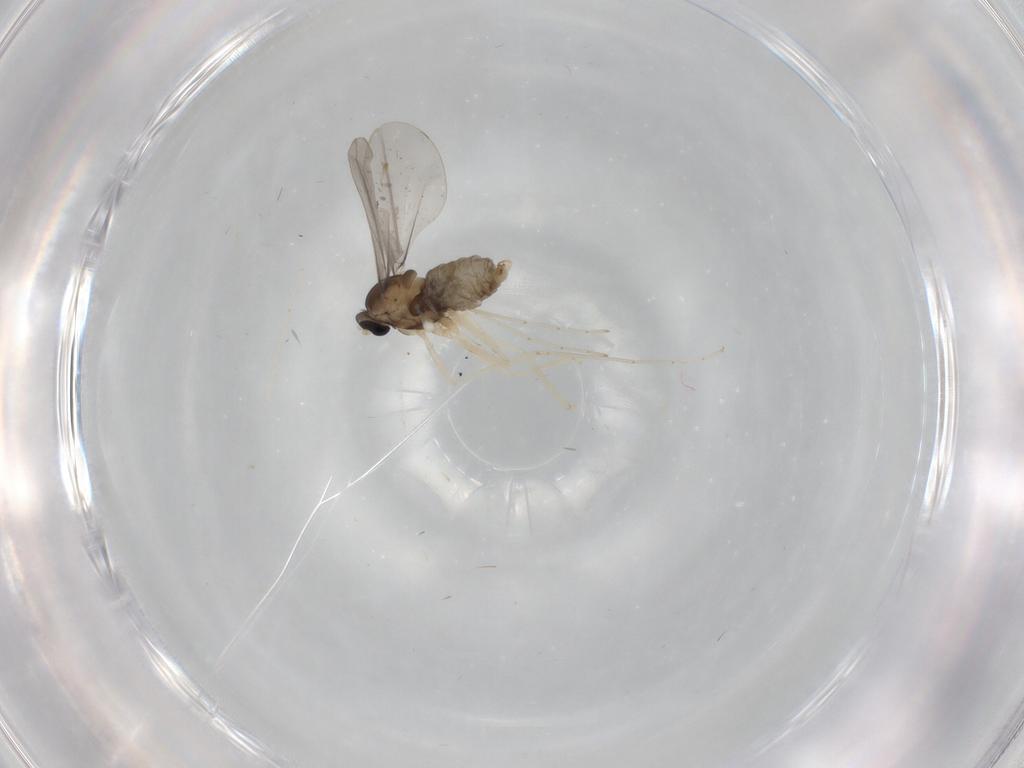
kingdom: Animalia
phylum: Arthropoda
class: Insecta
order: Diptera
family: Cecidomyiidae
